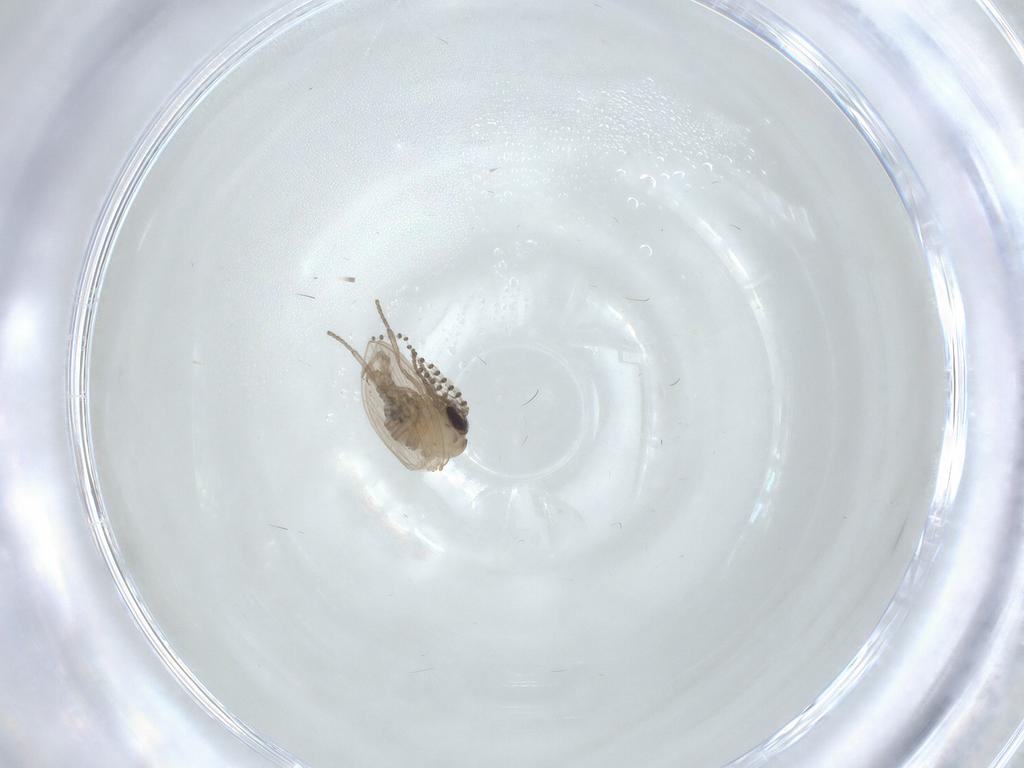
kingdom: Animalia
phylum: Arthropoda
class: Insecta
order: Diptera
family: Psychodidae
